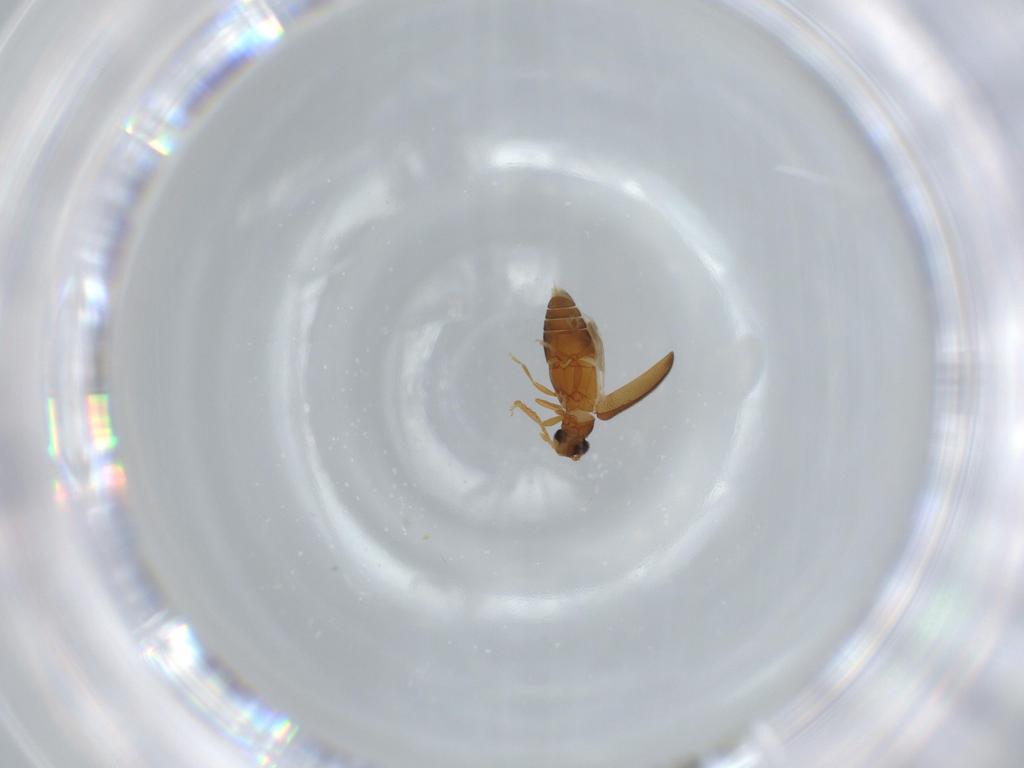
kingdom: Animalia
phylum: Arthropoda
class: Insecta
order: Coleoptera
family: Aderidae
